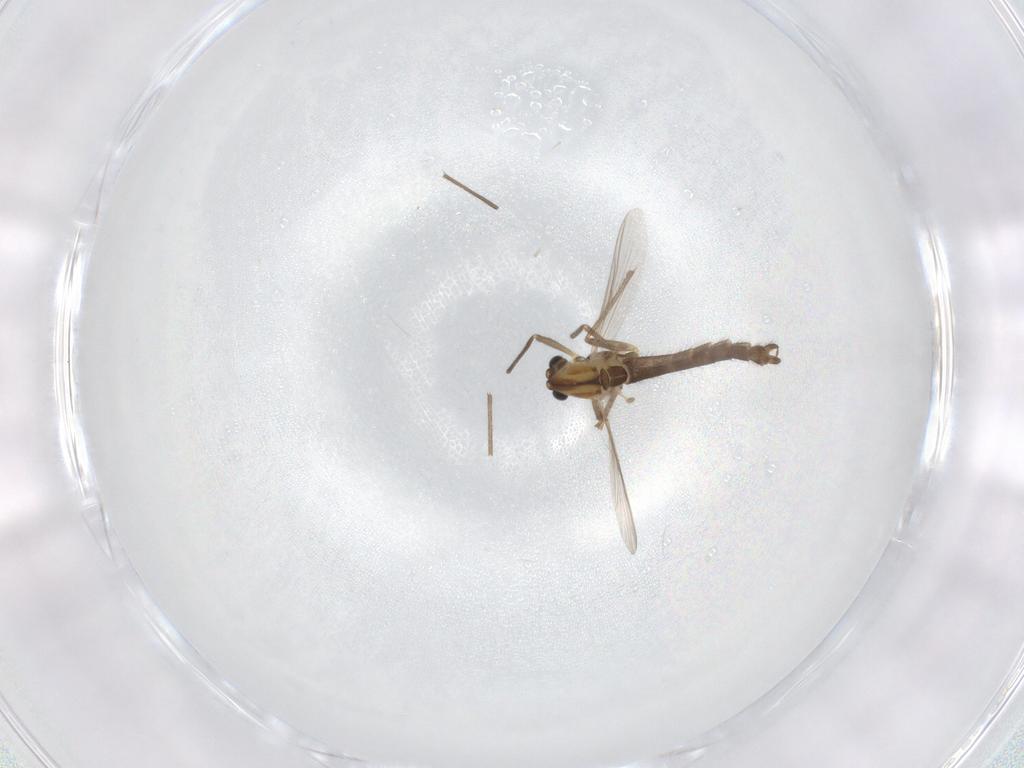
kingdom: Animalia
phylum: Arthropoda
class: Insecta
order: Diptera
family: Chironomidae
